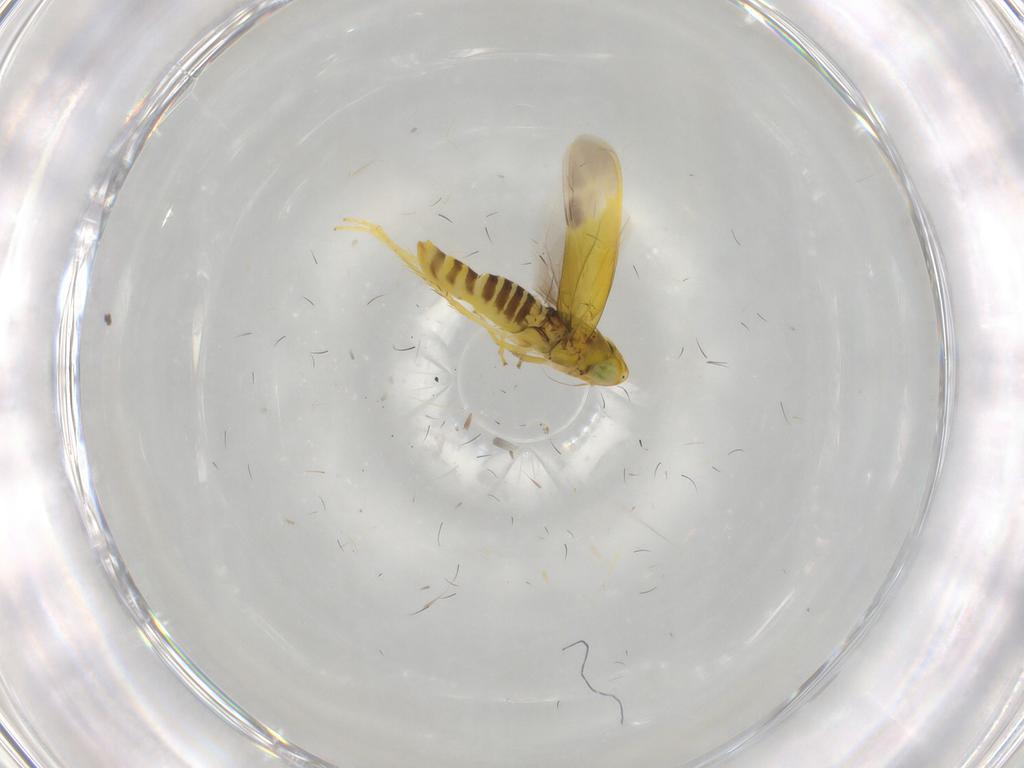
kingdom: Animalia
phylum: Arthropoda
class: Insecta
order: Hemiptera
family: Cicadellidae
